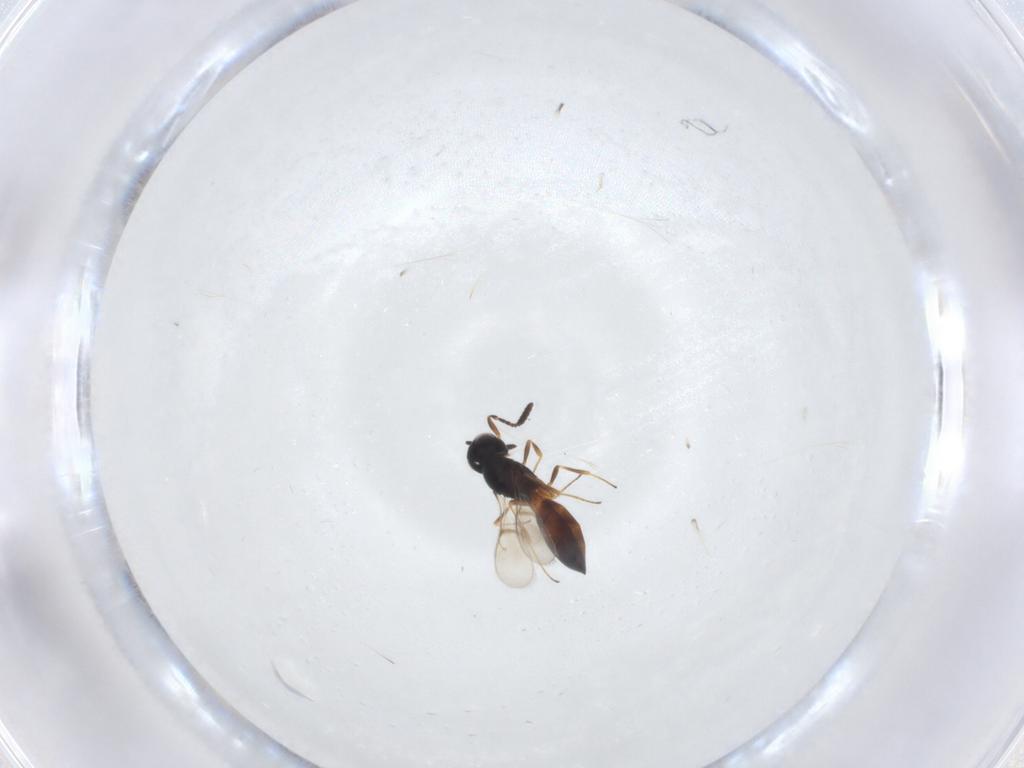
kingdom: Animalia
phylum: Arthropoda
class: Insecta
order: Hymenoptera
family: Scelionidae
